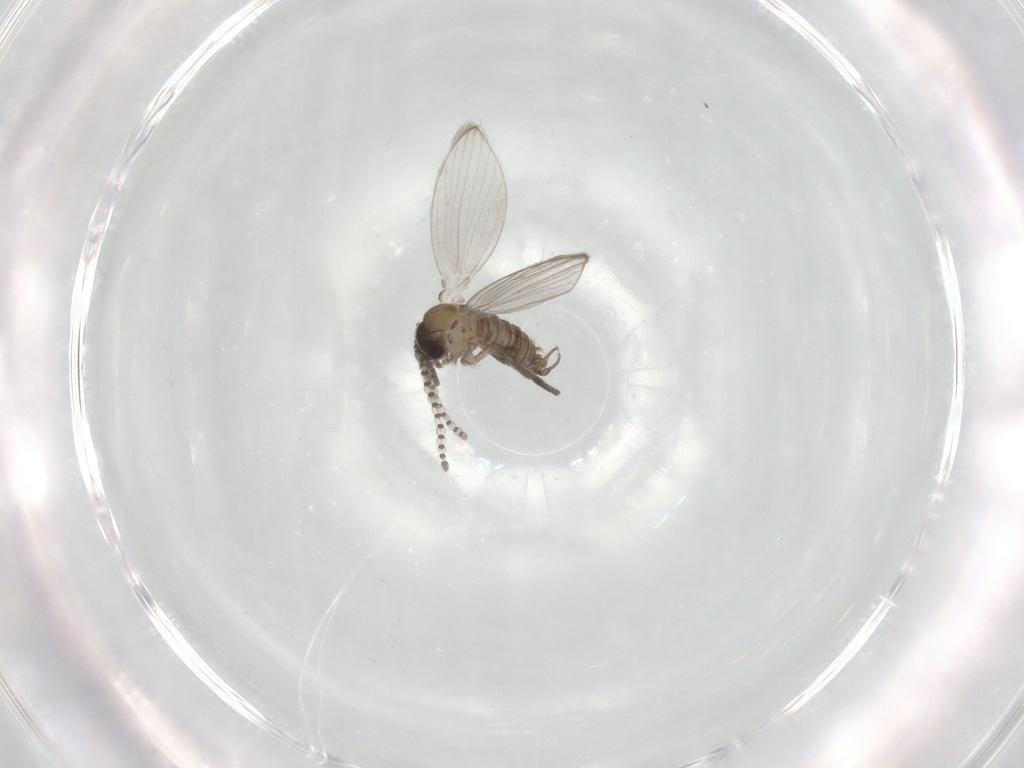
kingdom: Animalia
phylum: Arthropoda
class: Insecta
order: Diptera
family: Psychodidae
